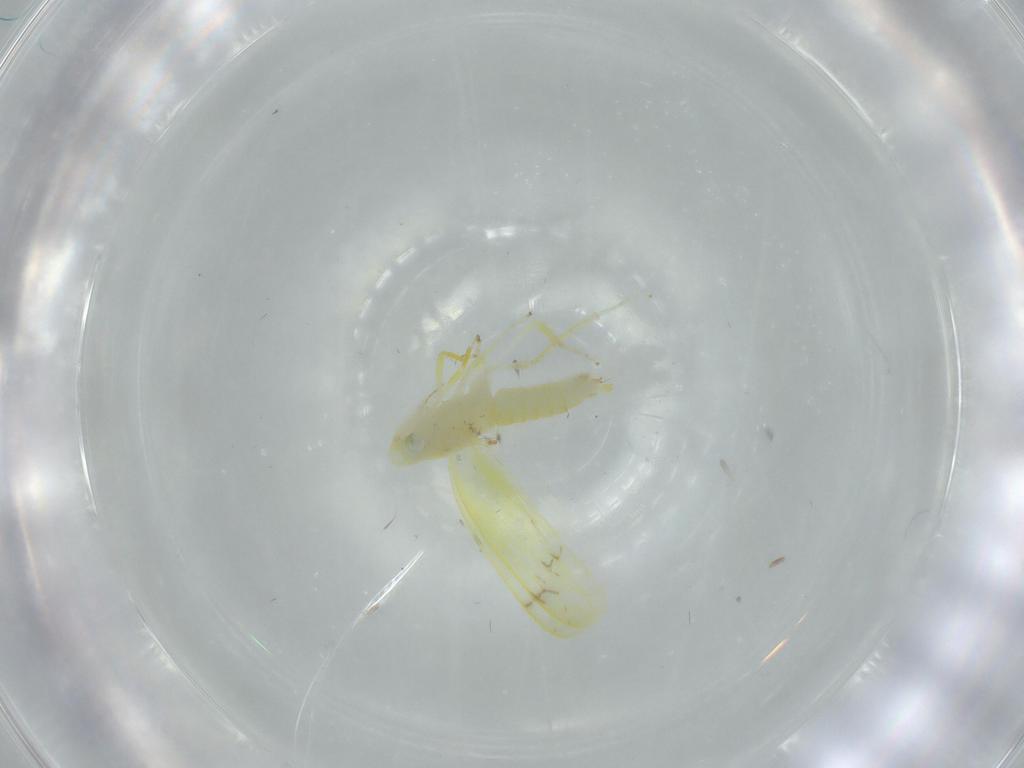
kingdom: Animalia
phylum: Arthropoda
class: Insecta
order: Hemiptera
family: Cicadellidae
